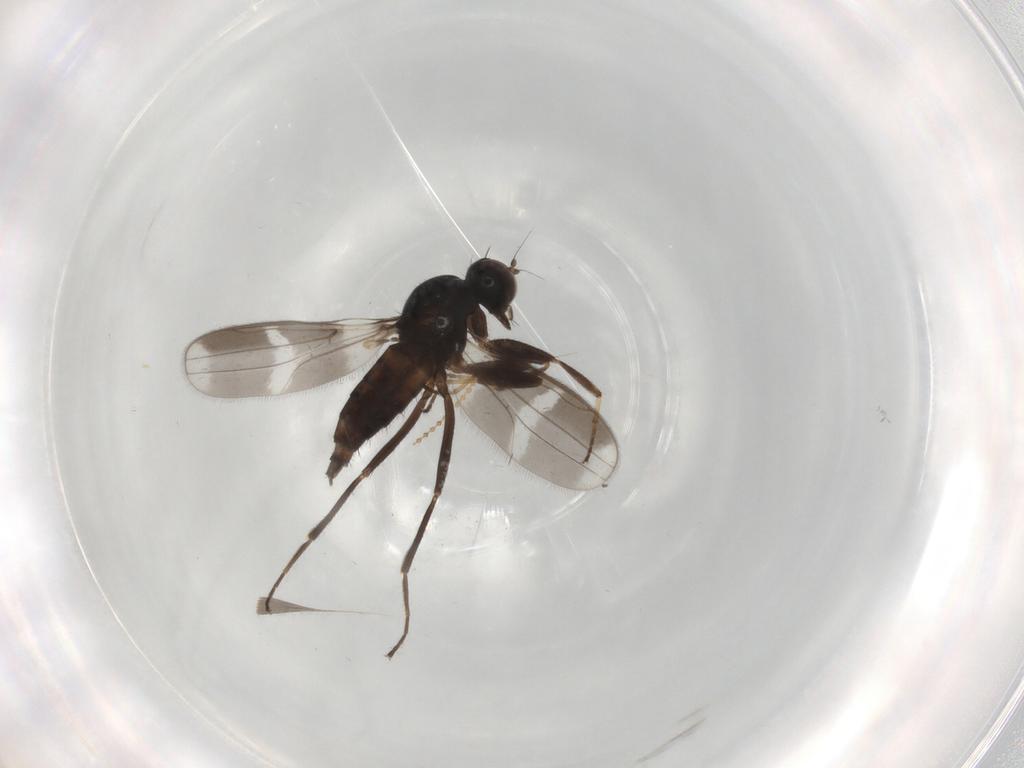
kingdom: Animalia
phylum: Arthropoda
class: Insecta
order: Diptera
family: Hybotidae
